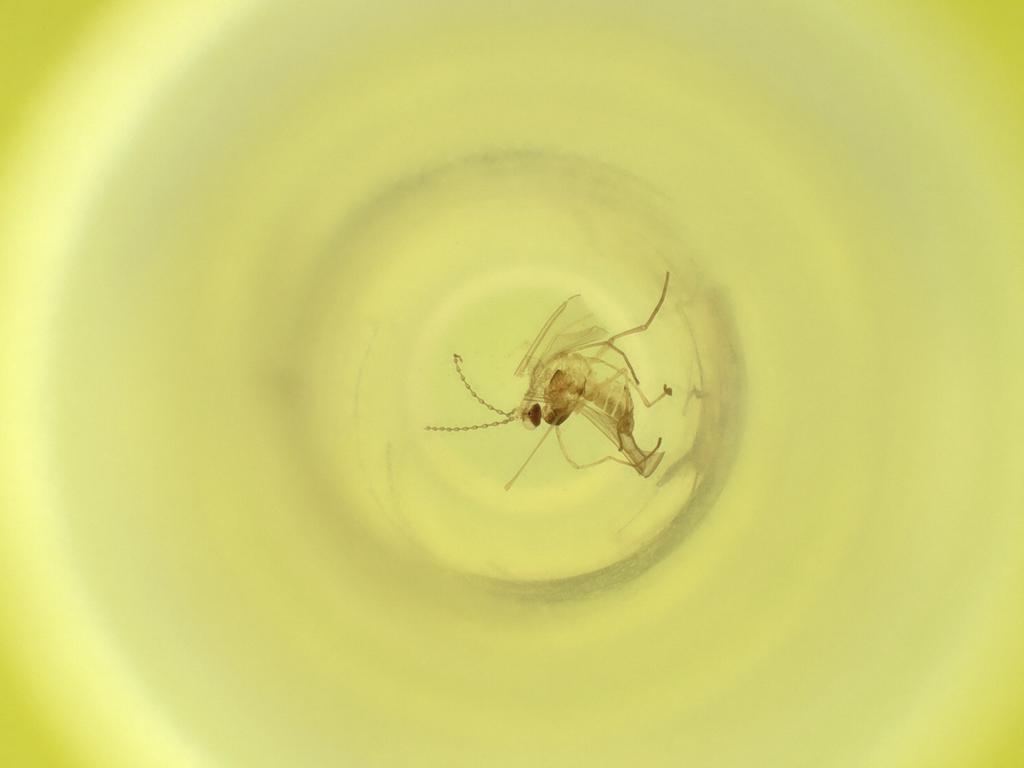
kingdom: Animalia
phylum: Arthropoda
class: Insecta
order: Diptera
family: Cecidomyiidae
